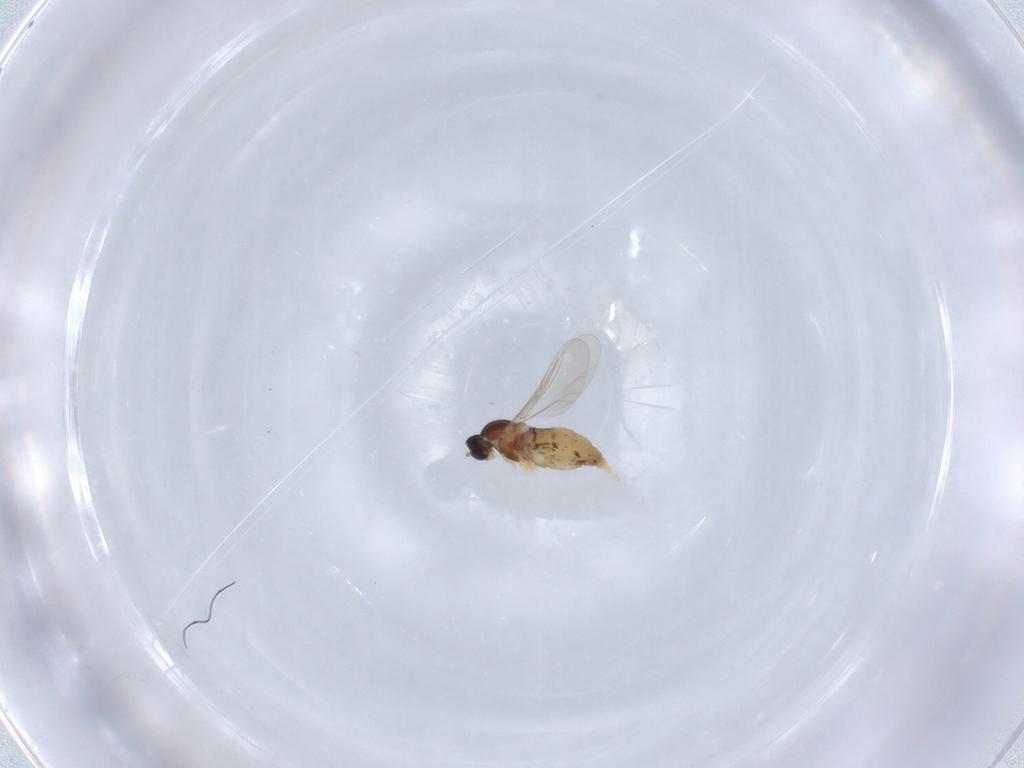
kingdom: Animalia
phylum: Arthropoda
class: Insecta
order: Diptera
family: Cecidomyiidae
